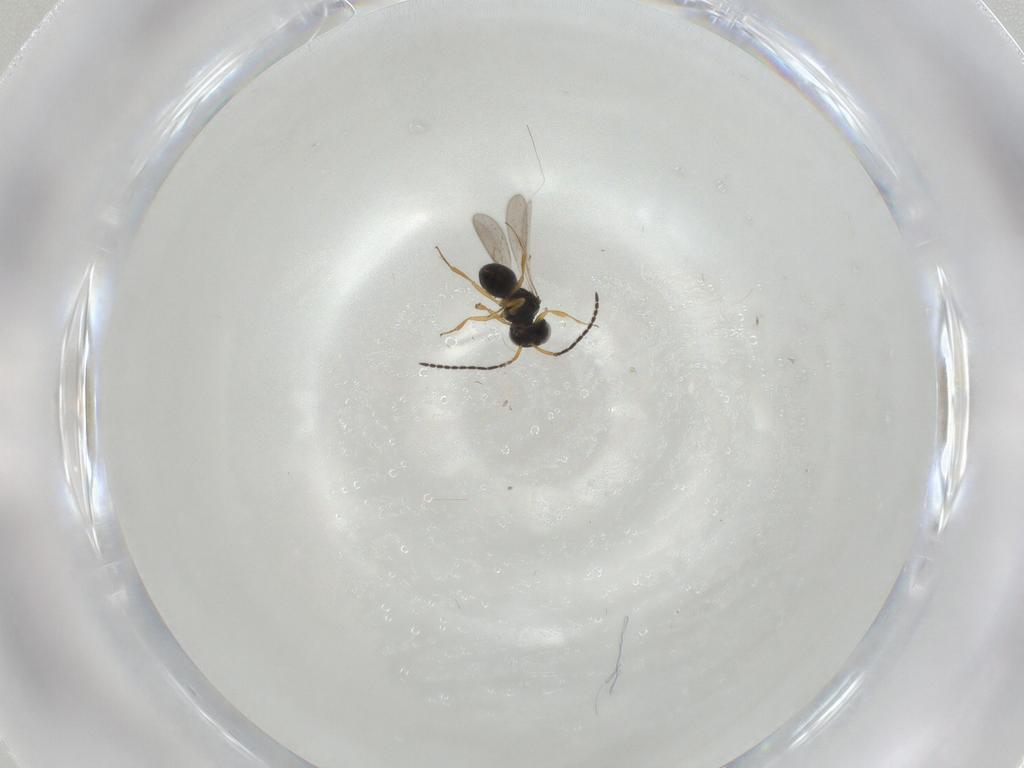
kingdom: Animalia
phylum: Arthropoda
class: Insecta
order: Hymenoptera
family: Scelionidae
